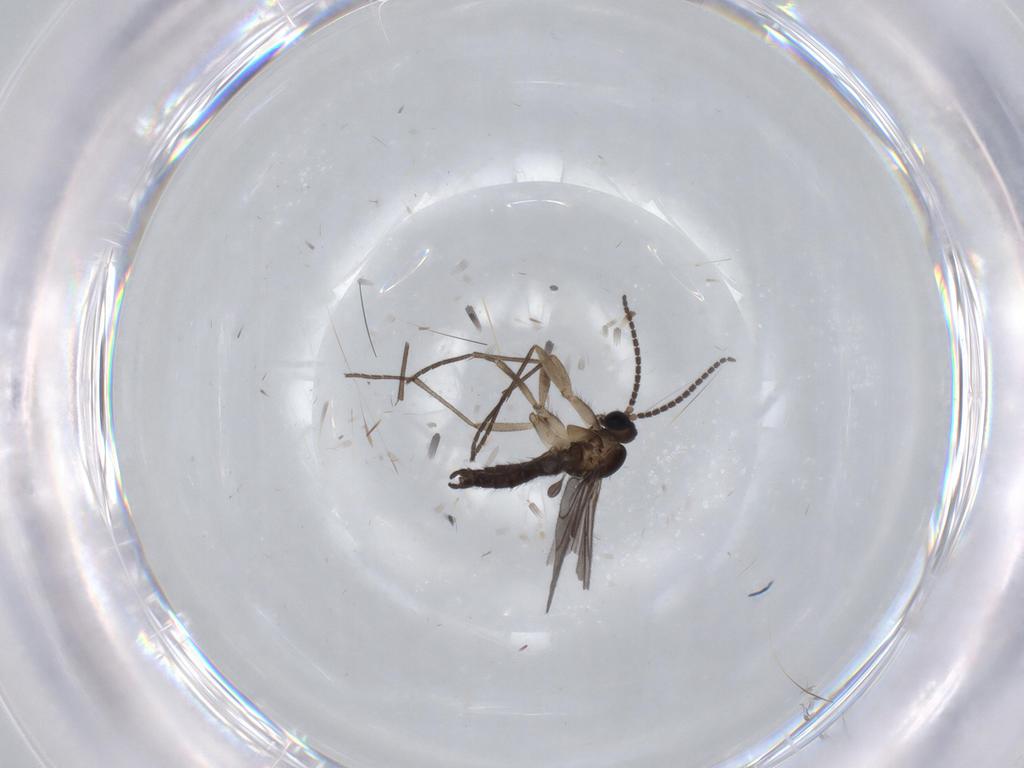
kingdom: Animalia
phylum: Arthropoda
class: Insecta
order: Diptera
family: Sciaridae
